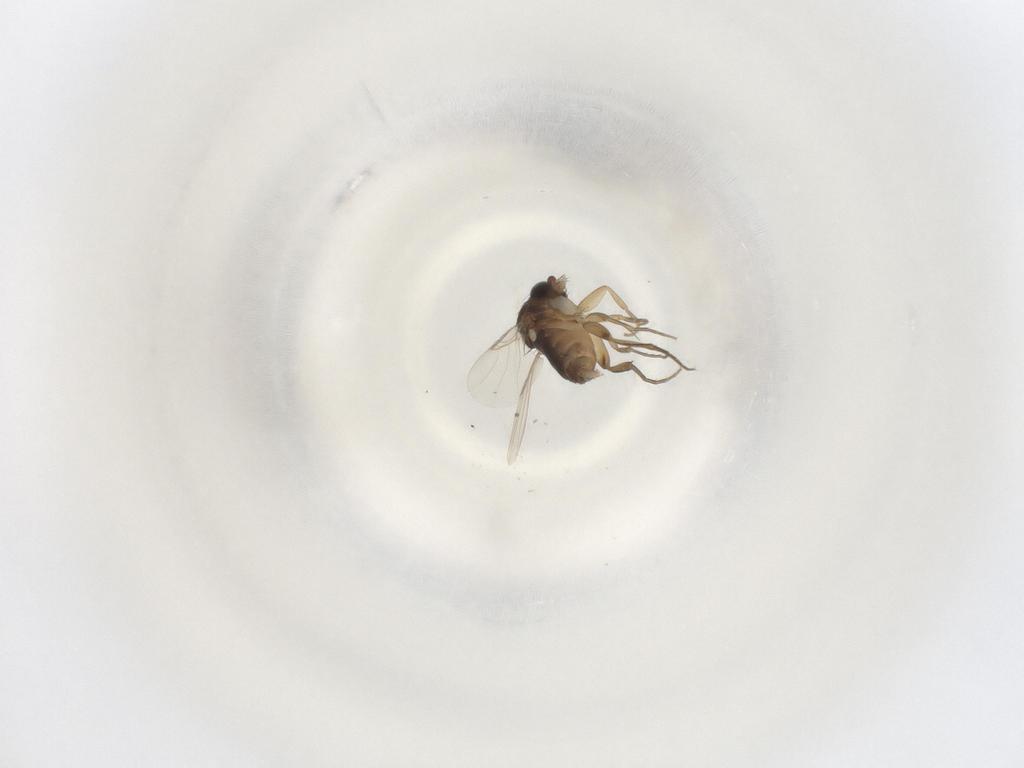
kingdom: Animalia
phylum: Arthropoda
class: Insecta
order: Diptera
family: Phoridae
